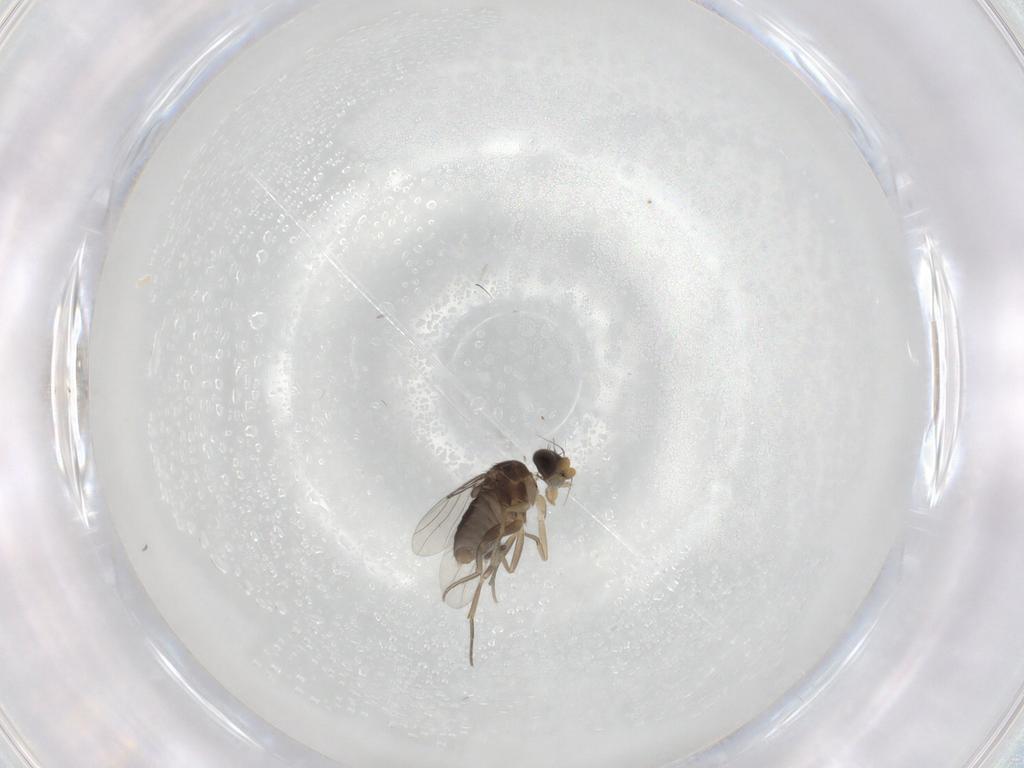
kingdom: Animalia
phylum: Arthropoda
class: Insecta
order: Diptera
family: Phoridae
